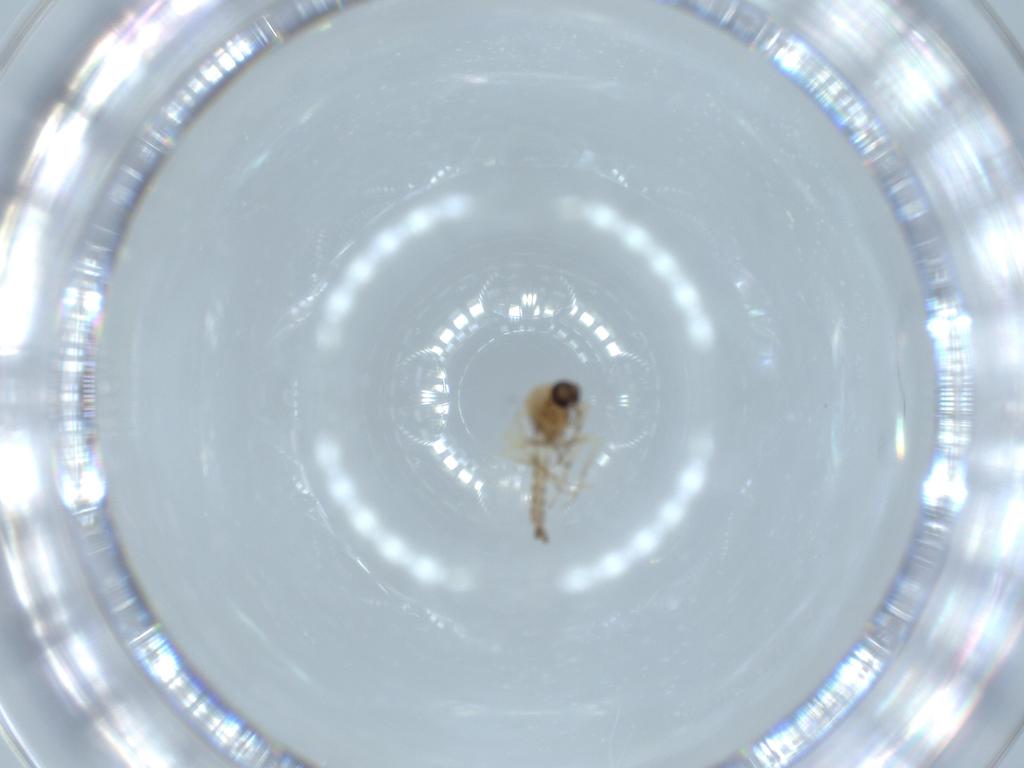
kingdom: Animalia
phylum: Arthropoda
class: Insecta
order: Diptera
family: Ceratopogonidae
